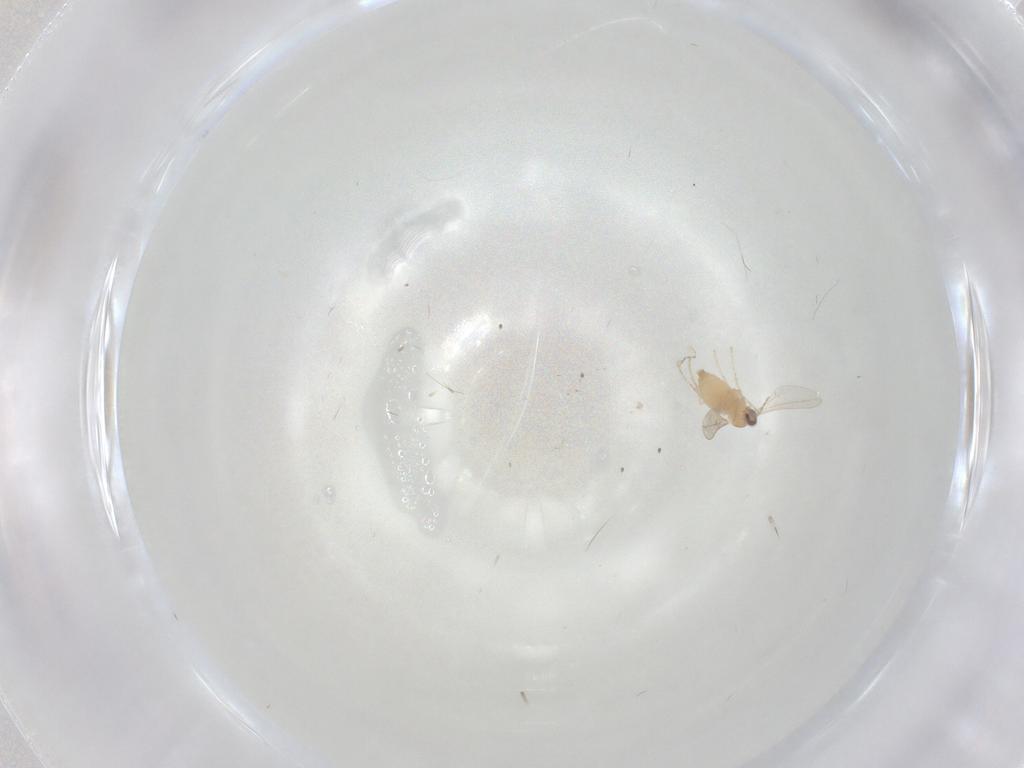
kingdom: Animalia
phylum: Arthropoda
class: Insecta
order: Diptera
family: Cecidomyiidae
